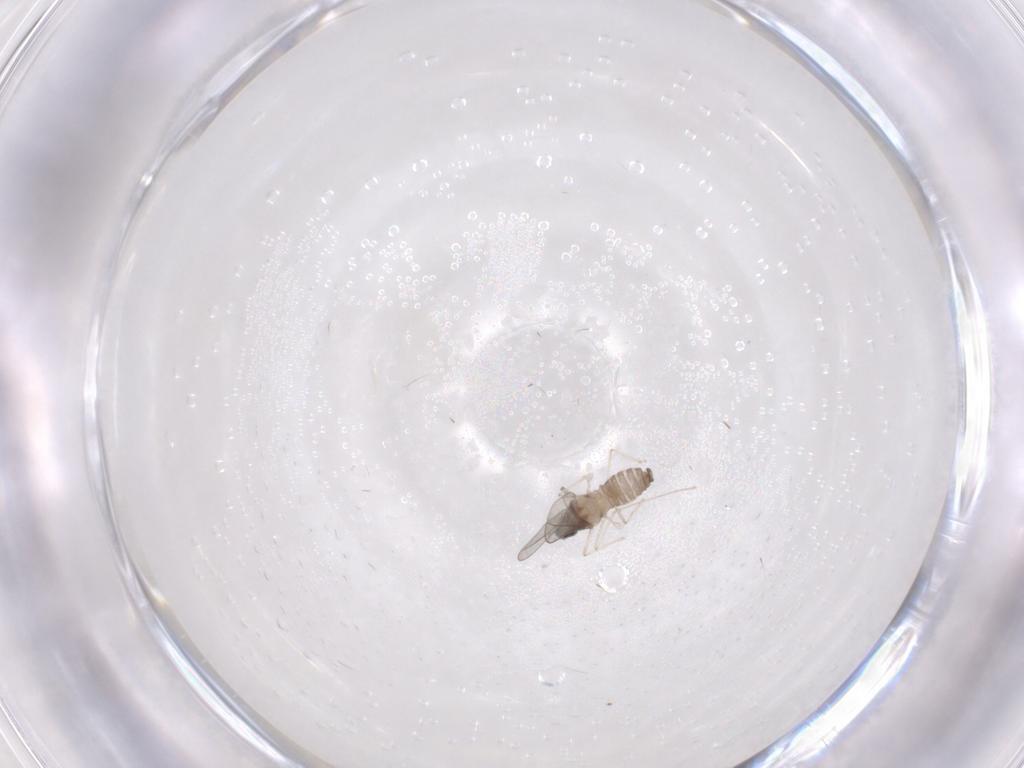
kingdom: Animalia
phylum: Arthropoda
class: Insecta
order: Diptera
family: Cecidomyiidae
